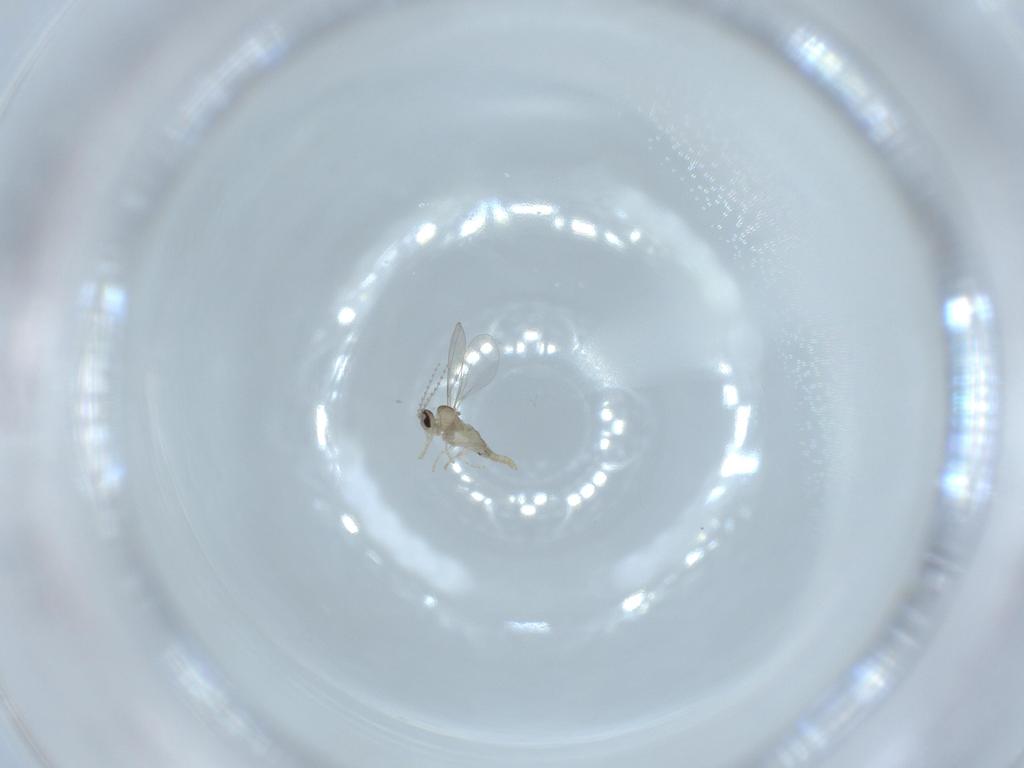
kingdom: Animalia
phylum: Arthropoda
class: Insecta
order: Diptera
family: Cecidomyiidae
